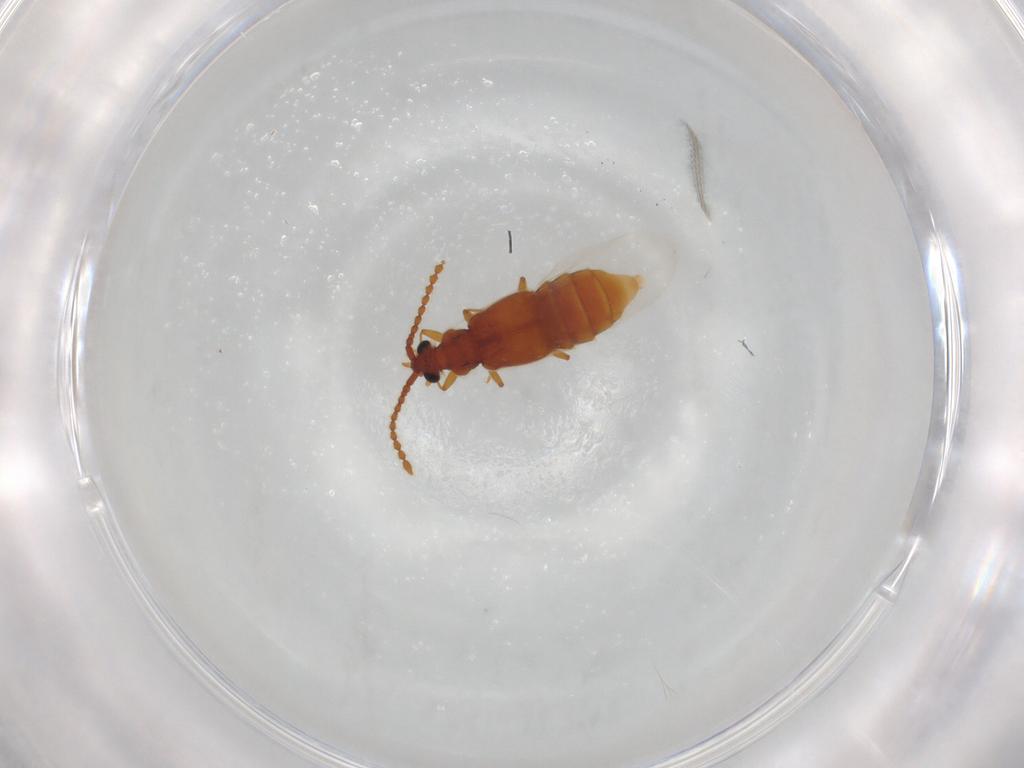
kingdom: Animalia
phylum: Arthropoda
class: Insecta
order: Coleoptera
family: Staphylinidae
